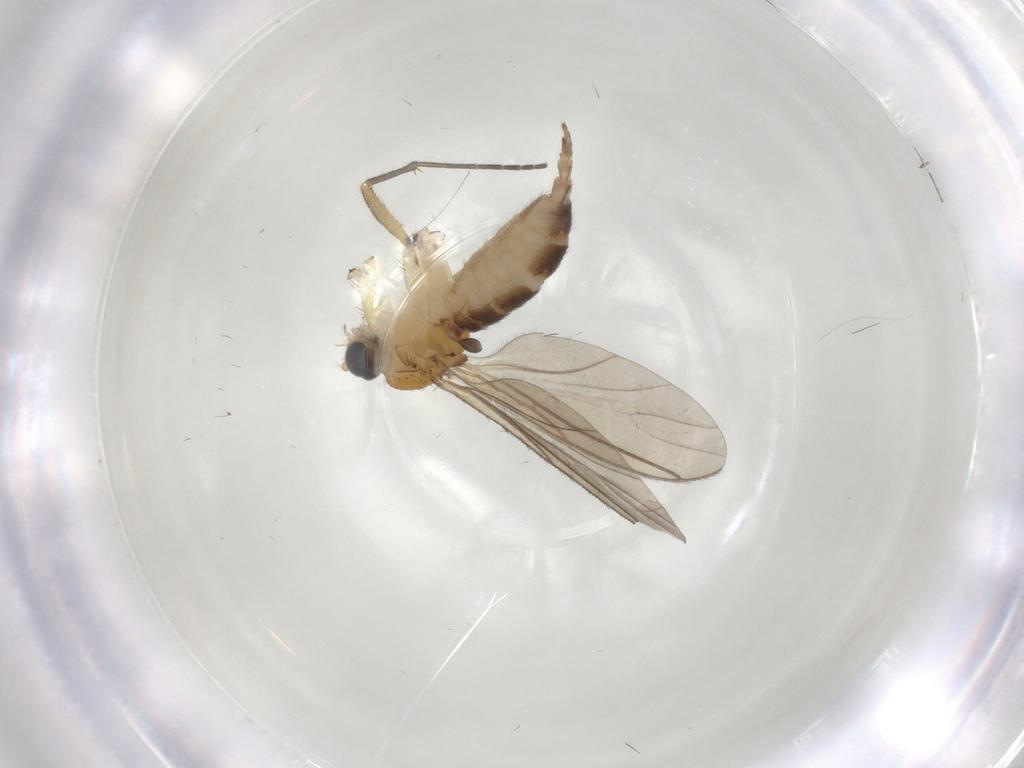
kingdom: Animalia
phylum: Arthropoda
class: Insecta
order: Diptera
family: Sciaridae
